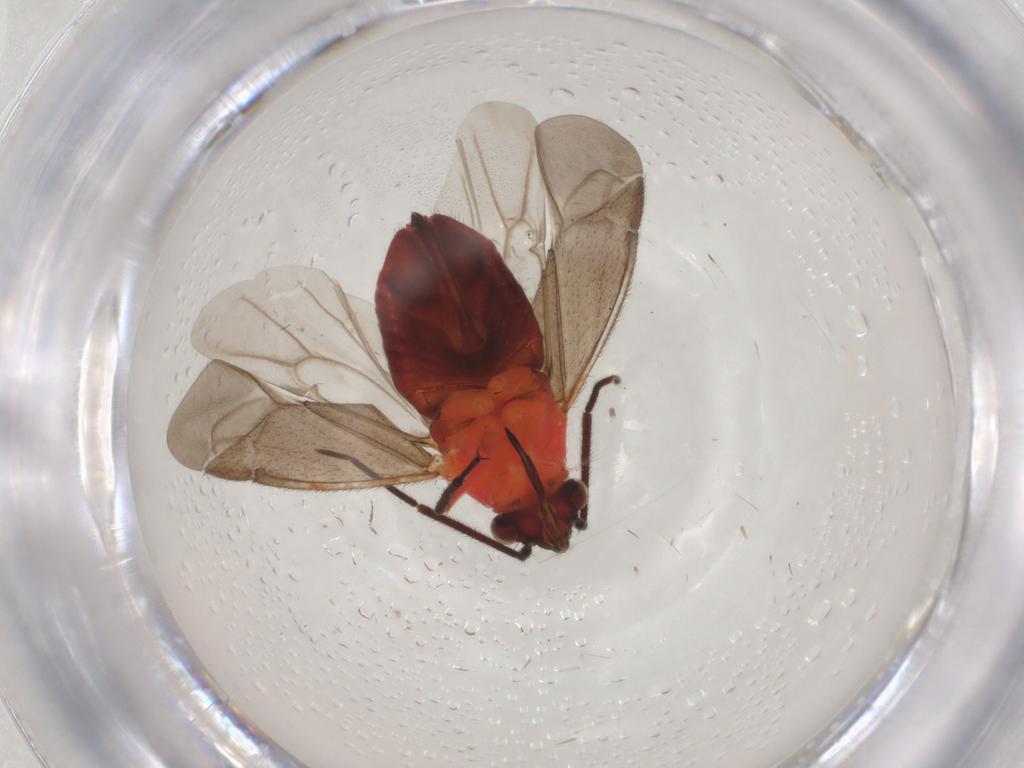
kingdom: Animalia
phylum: Arthropoda
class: Insecta
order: Hemiptera
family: Miridae
